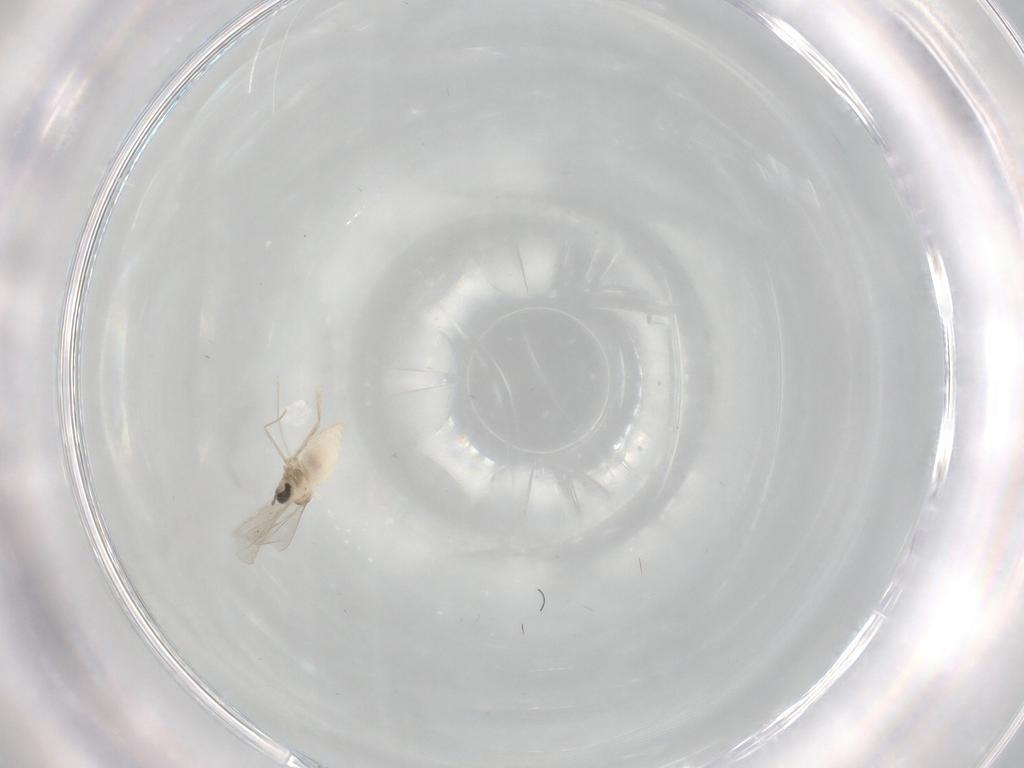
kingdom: Animalia
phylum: Arthropoda
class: Insecta
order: Diptera
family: Cecidomyiidae
